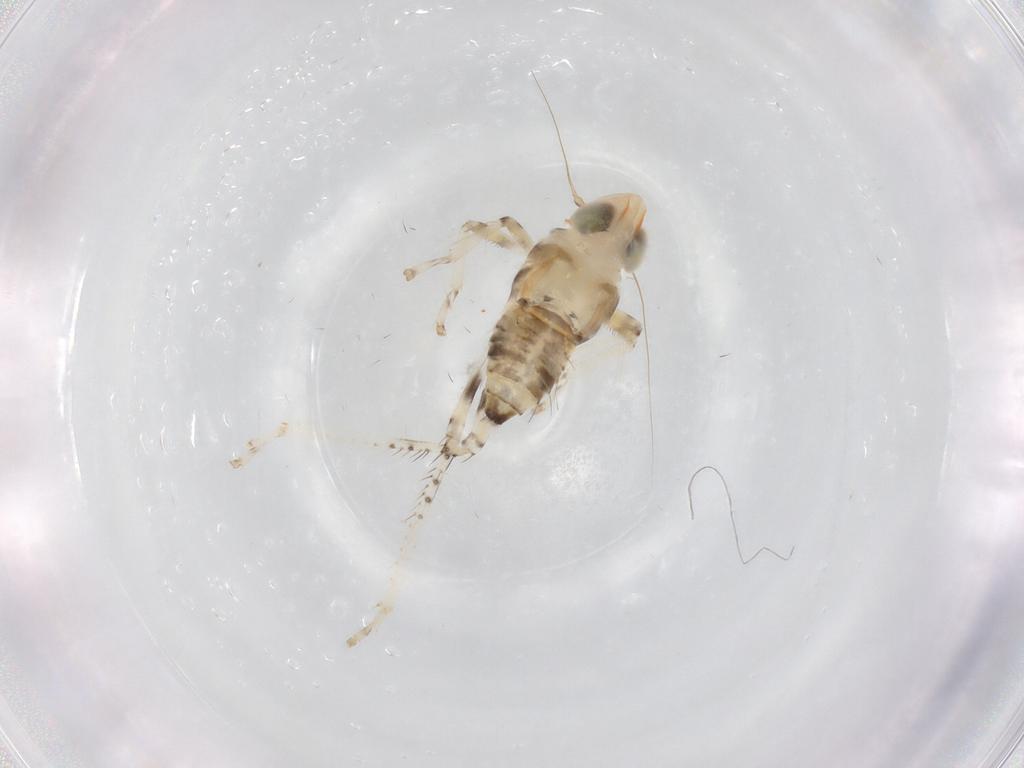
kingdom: Animalia
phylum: Arthropoda
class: Insecta
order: Hemiptera
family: Cicadellidae
